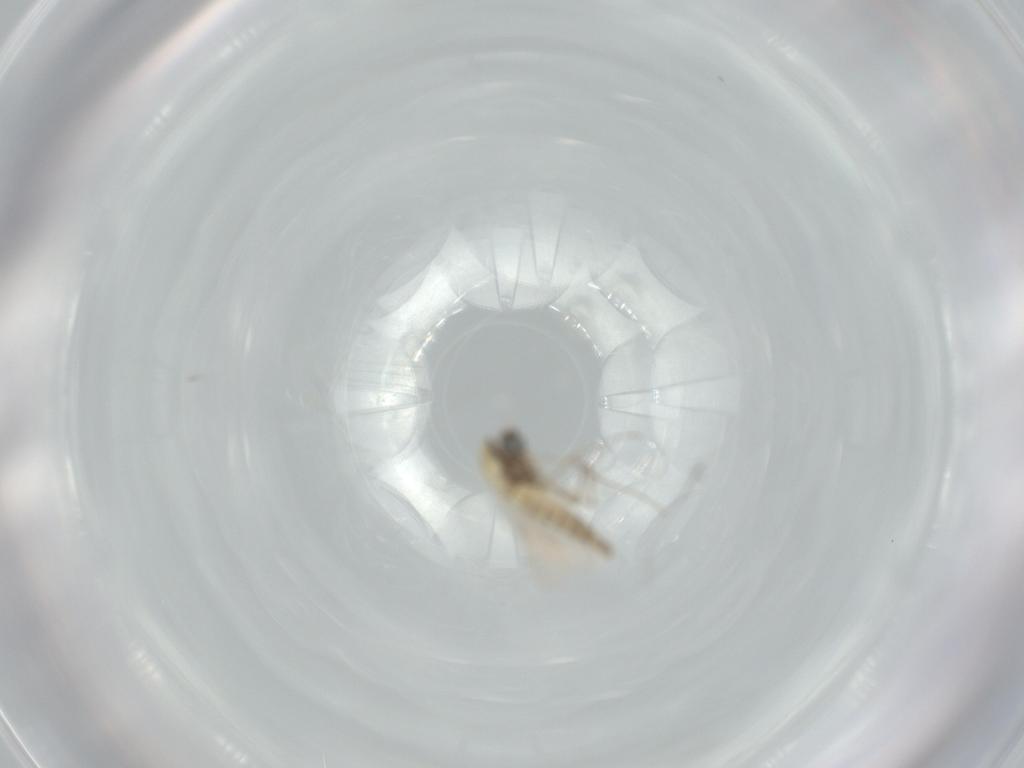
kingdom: Animalia
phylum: Arthropoda
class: Insecta
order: Diptera
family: Chironomidae
